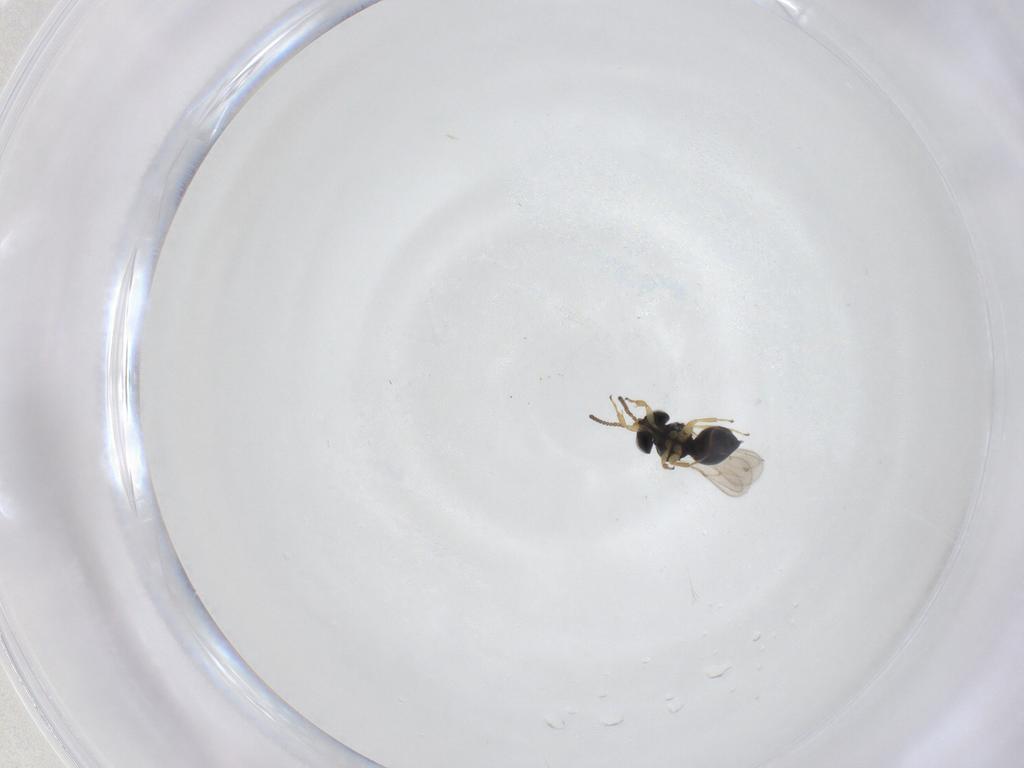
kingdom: Animalia
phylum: Arthropoda
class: Insecta
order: Hymenoptera
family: Scelionidae
